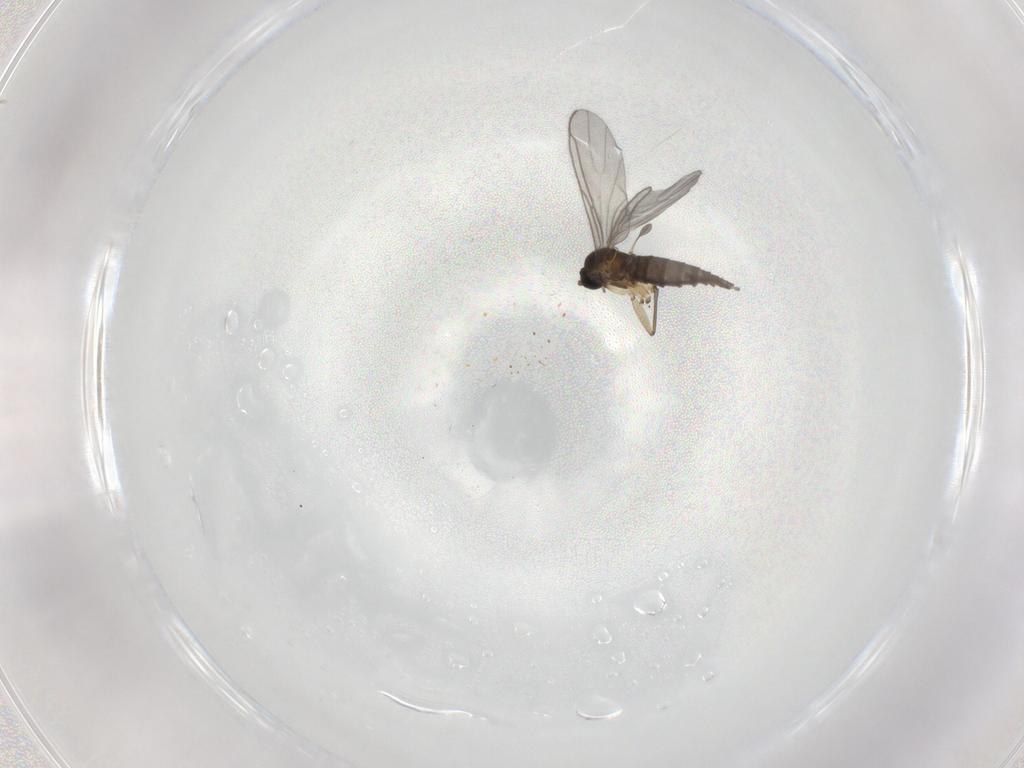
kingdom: Animalia
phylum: Arthropoda
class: Insecta
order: Diptera
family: Sciaridae
